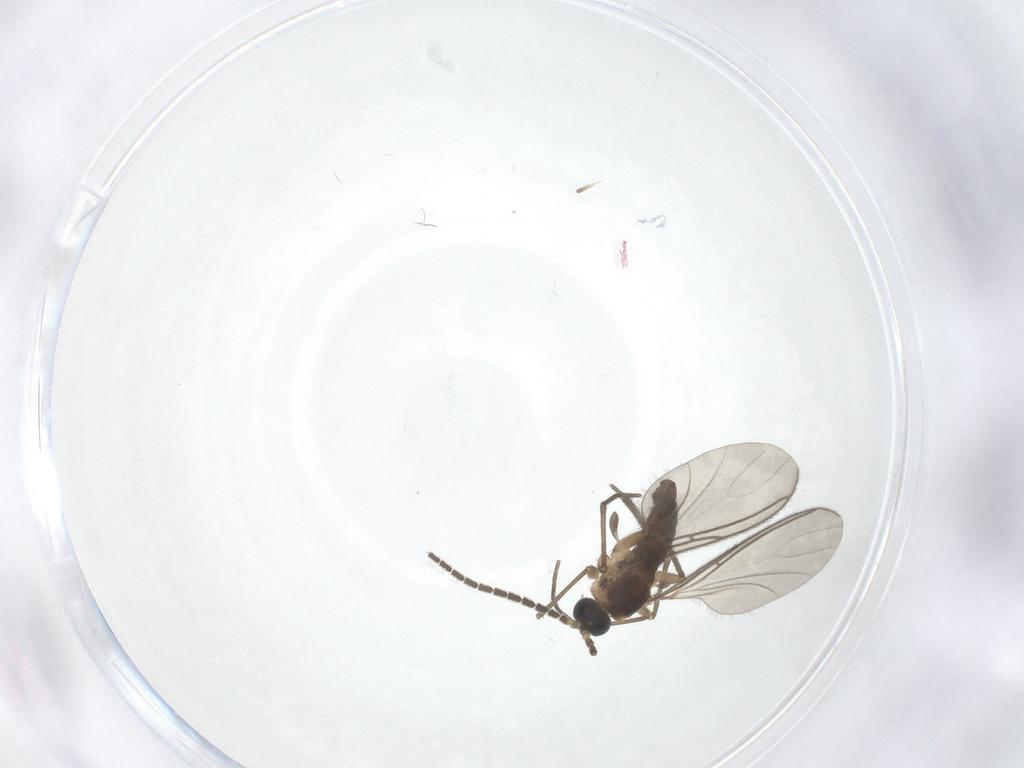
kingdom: Animalia
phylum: Arthropoda
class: Insecta
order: Diptera
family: Sciaridae
